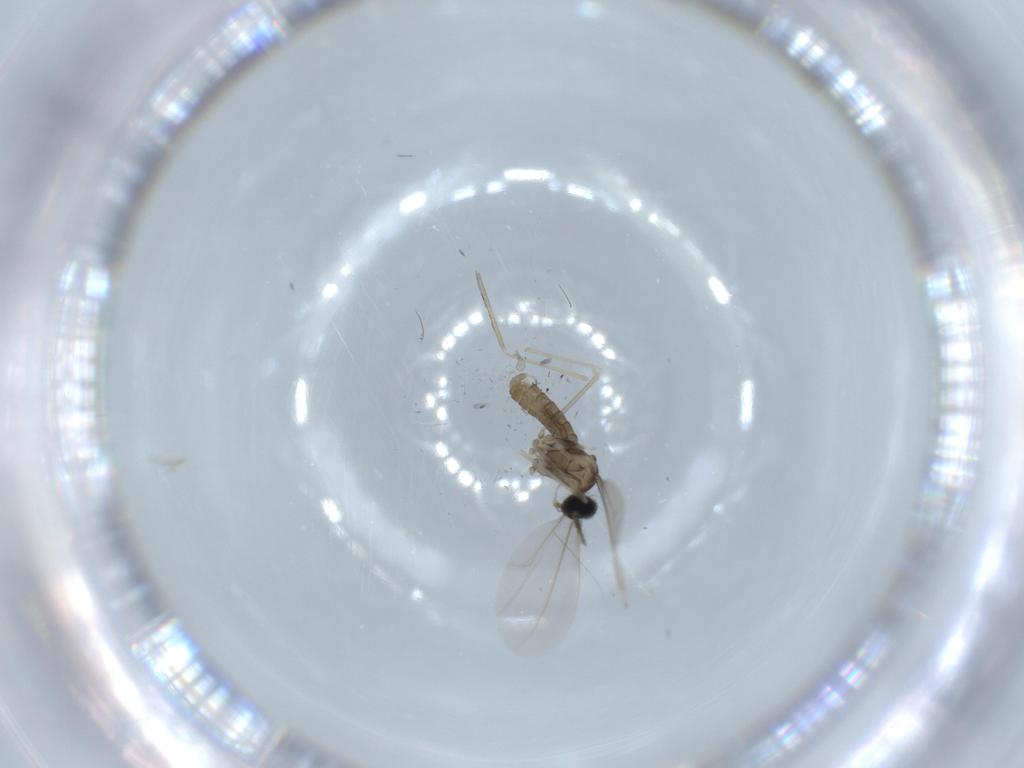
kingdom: Animalia
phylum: Arthropoda
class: Insecta
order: Diptera
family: Cecidomyiidae
